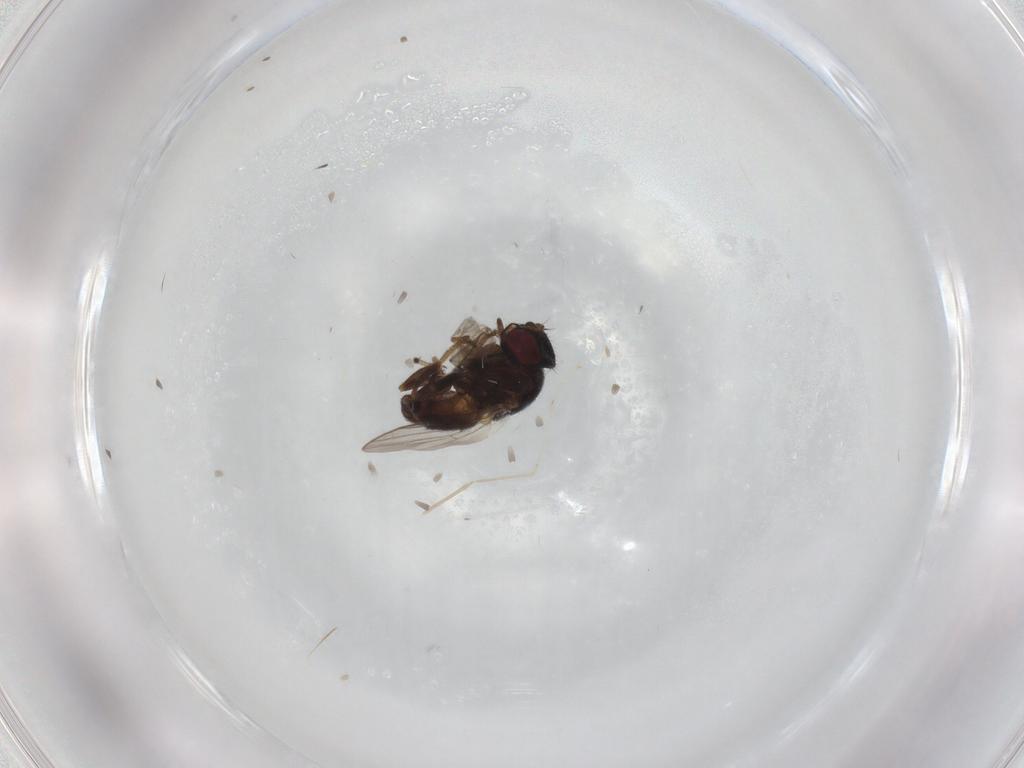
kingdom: Animalia
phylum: Arthropoda
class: Insecta
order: Diptera
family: Chloropidae
